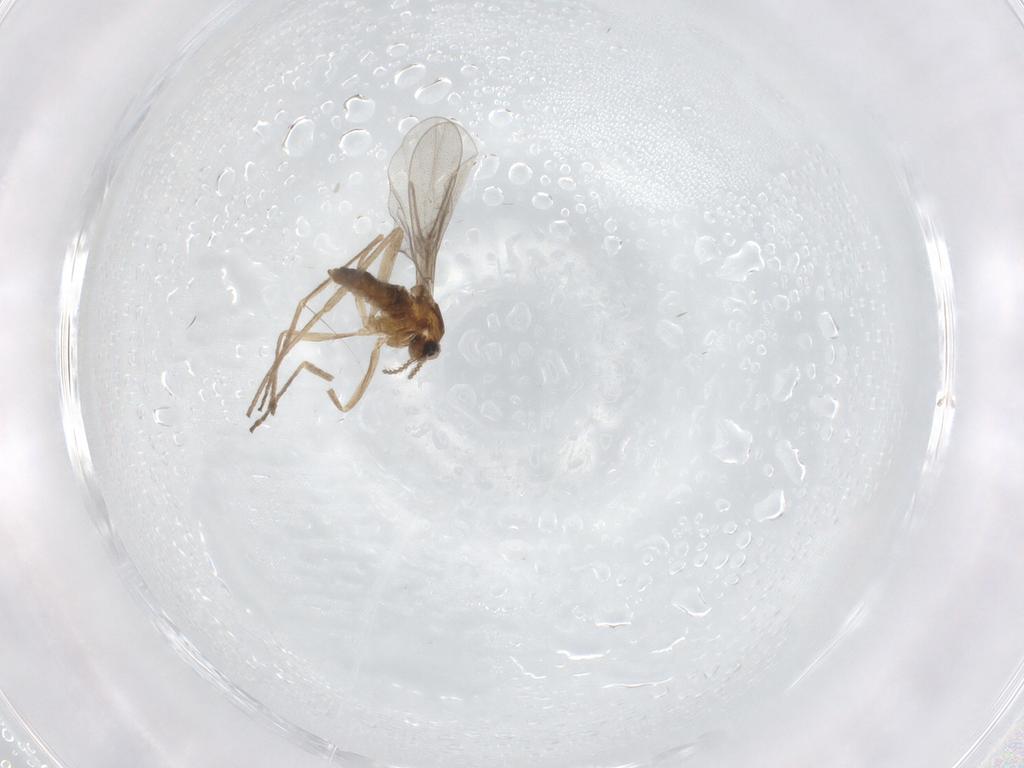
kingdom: Animalia
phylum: Arthropoda
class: Insecta
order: Diptera
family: Cecidomyiidae
